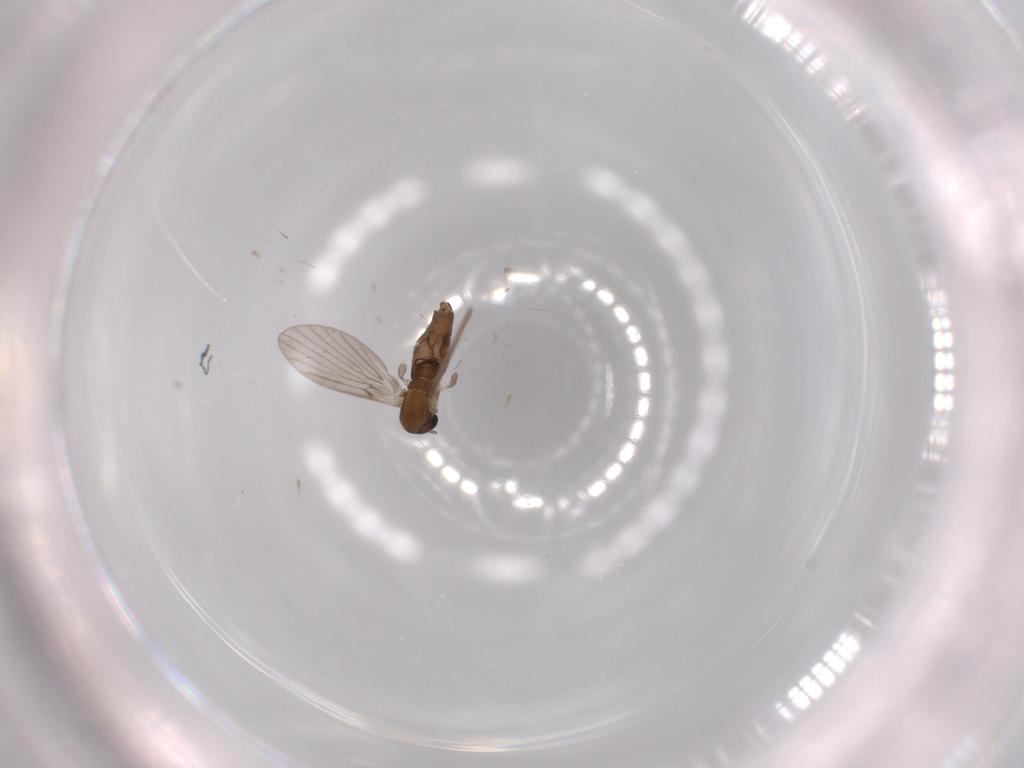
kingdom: Animalia
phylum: Arthropoda
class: Insecta
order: Diptera
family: Psychodidae
